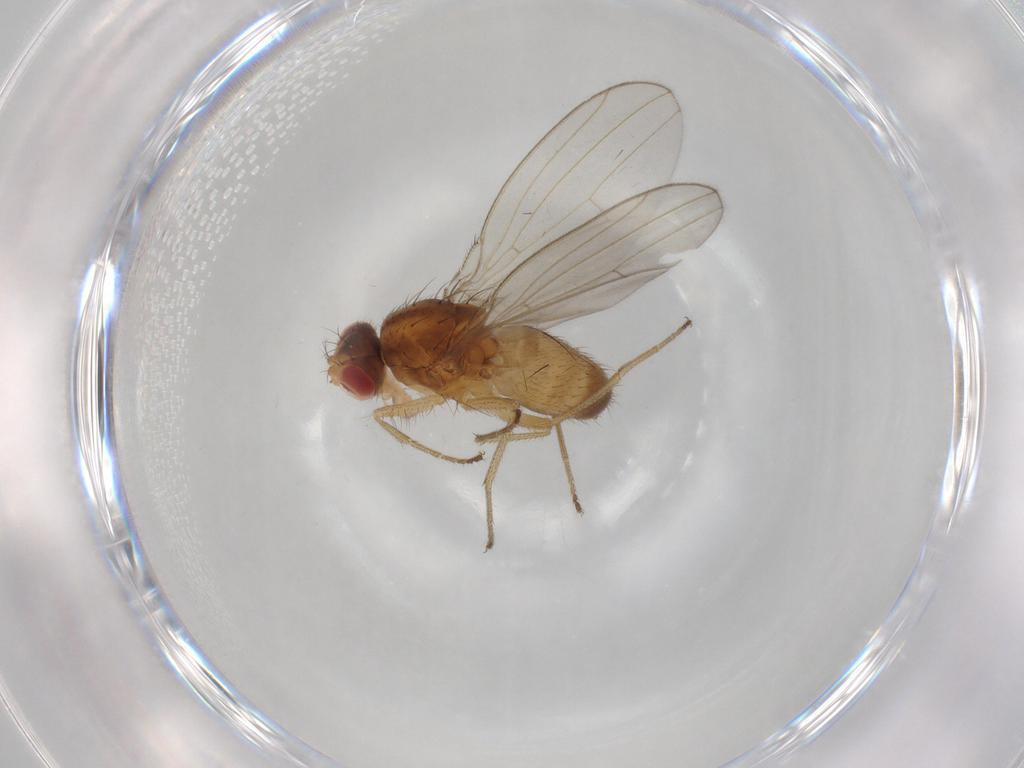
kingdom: Animalia
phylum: Arthropoda
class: Insecta
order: Diptera
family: Drosophilidae
